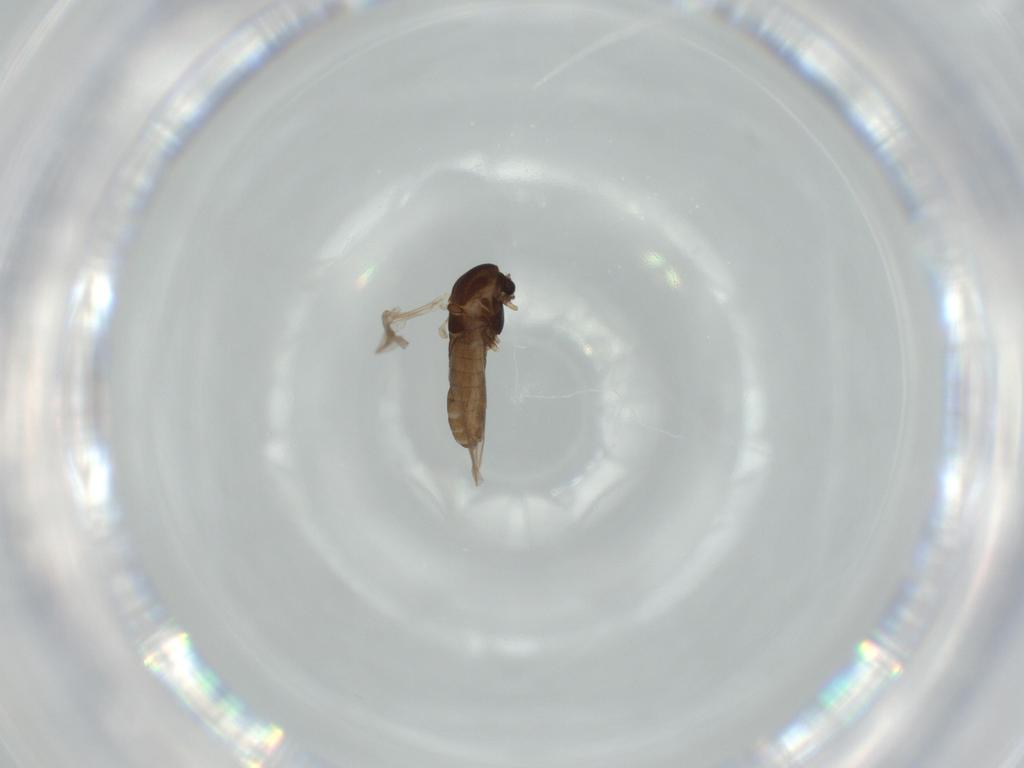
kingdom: Animalia
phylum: Arthropoda
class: Insecta
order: Diptera
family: Chironomidae
